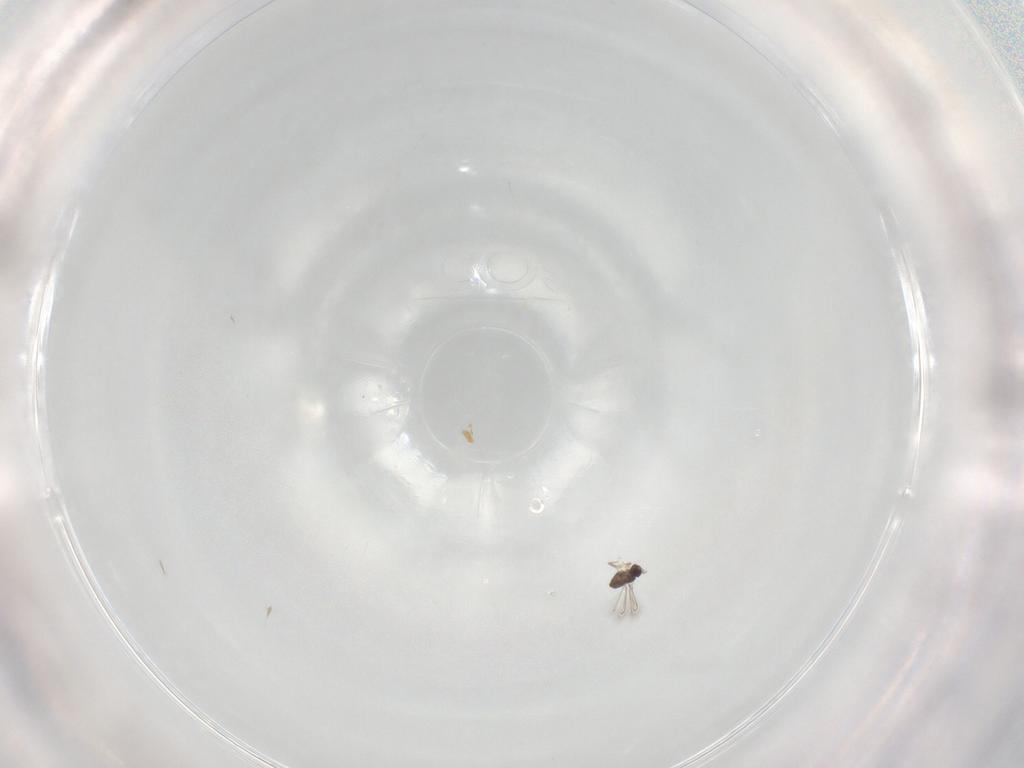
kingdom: Animalia
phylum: Arthropoda
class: Insecta
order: Hymenoptera
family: Mymaridae
